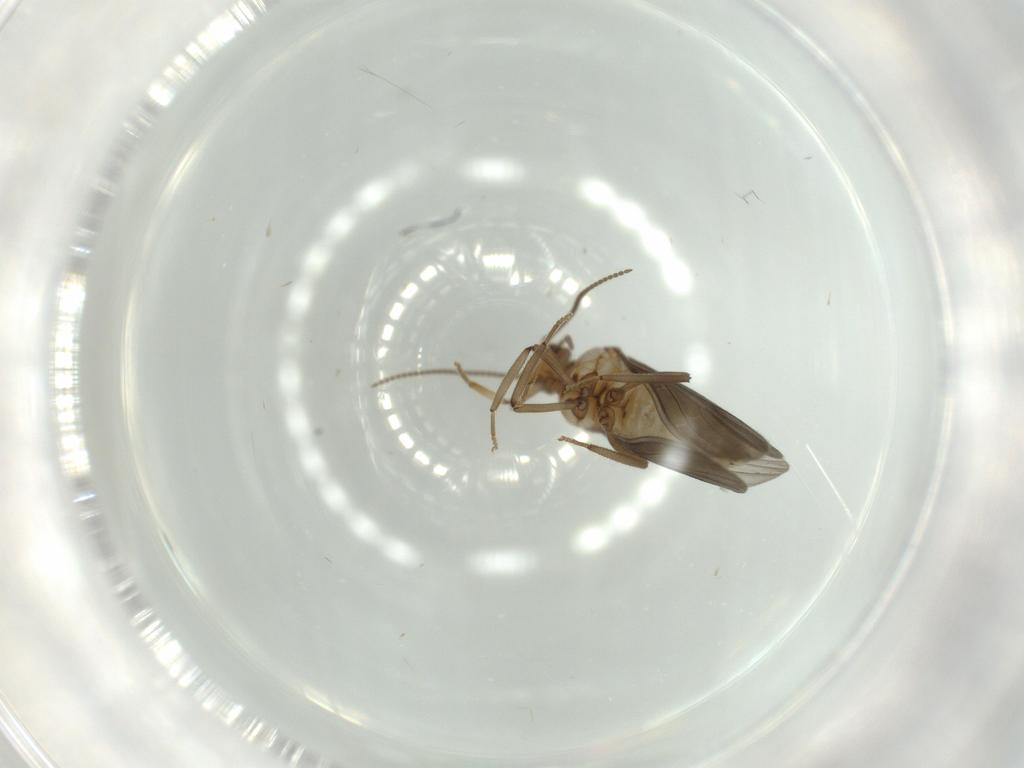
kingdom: Animalia
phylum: Arthropoda
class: Insecta
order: Neuroptera
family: Coniopterygidae
